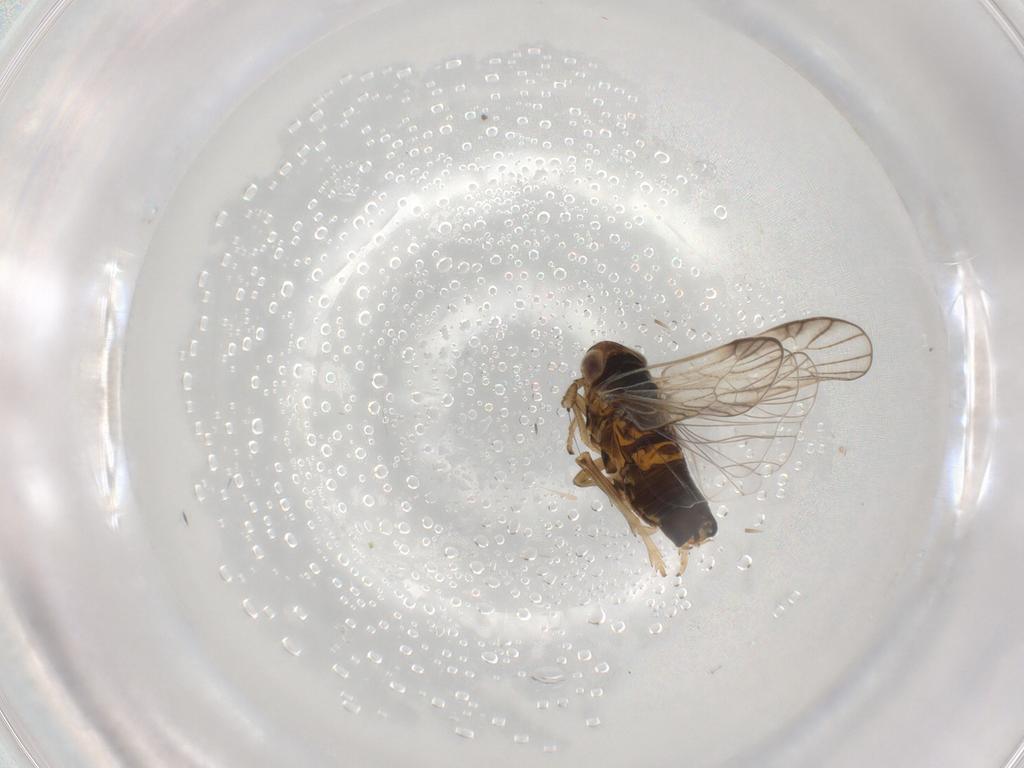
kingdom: Animalia
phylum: Arthropoda
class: Insecta
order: Hemiptera
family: Delphacidae
